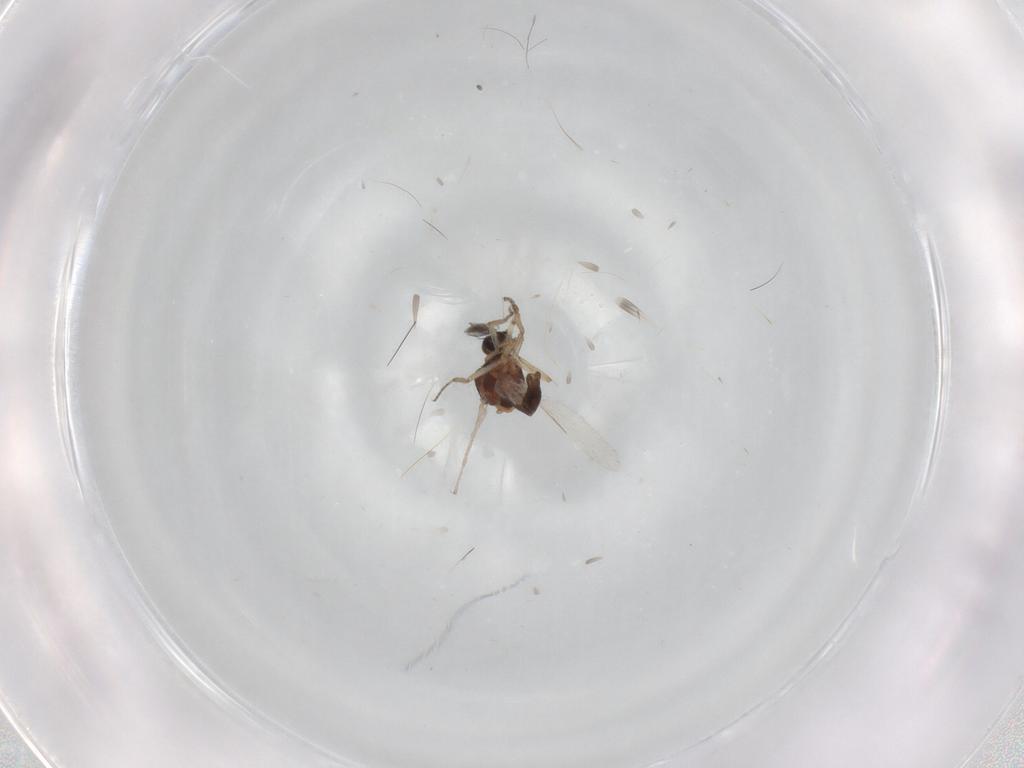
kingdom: Animalia
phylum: Arthropoda
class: Insecta
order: Diptera
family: Ceratopogonidae
